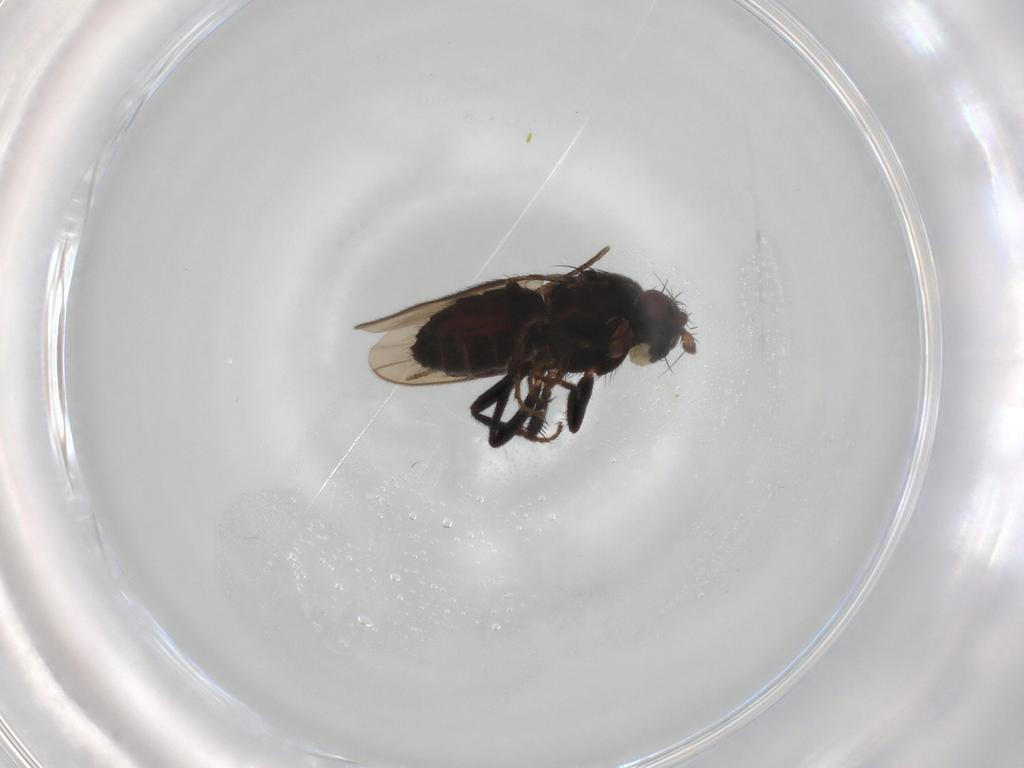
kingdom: Animalia
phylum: Arthropoda
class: Insecta
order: Diptera
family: Sphaeroceridae
